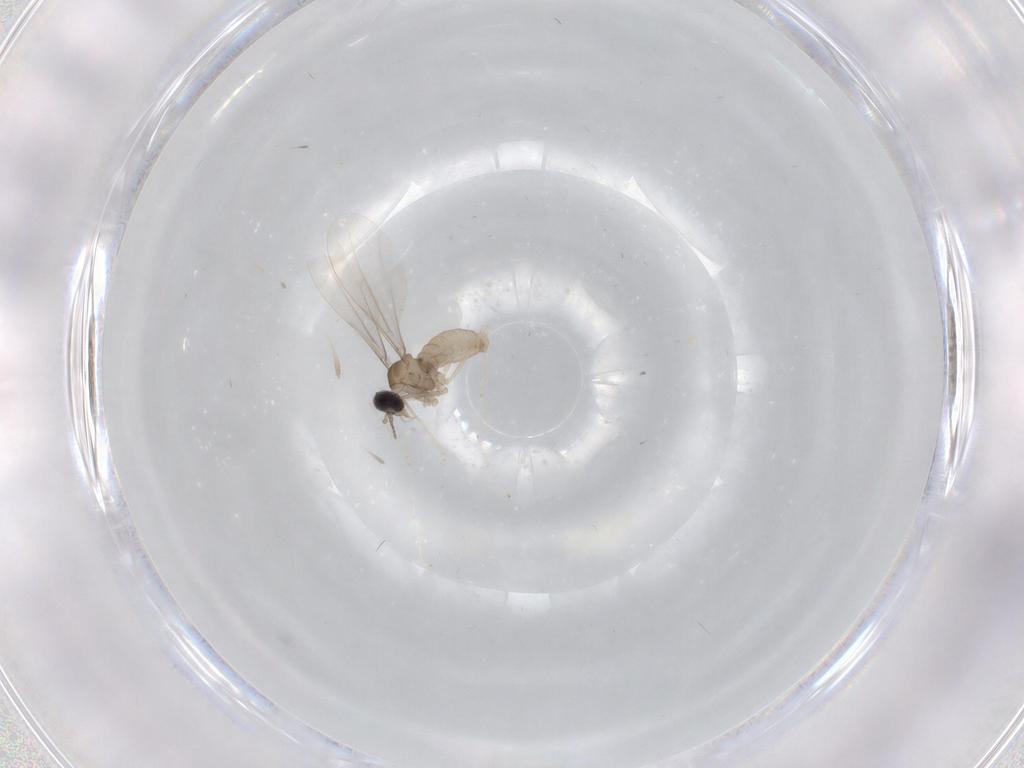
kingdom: Animalia
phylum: Arthropoda
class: Insecta
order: Diptera
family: Cecidomyiidae
